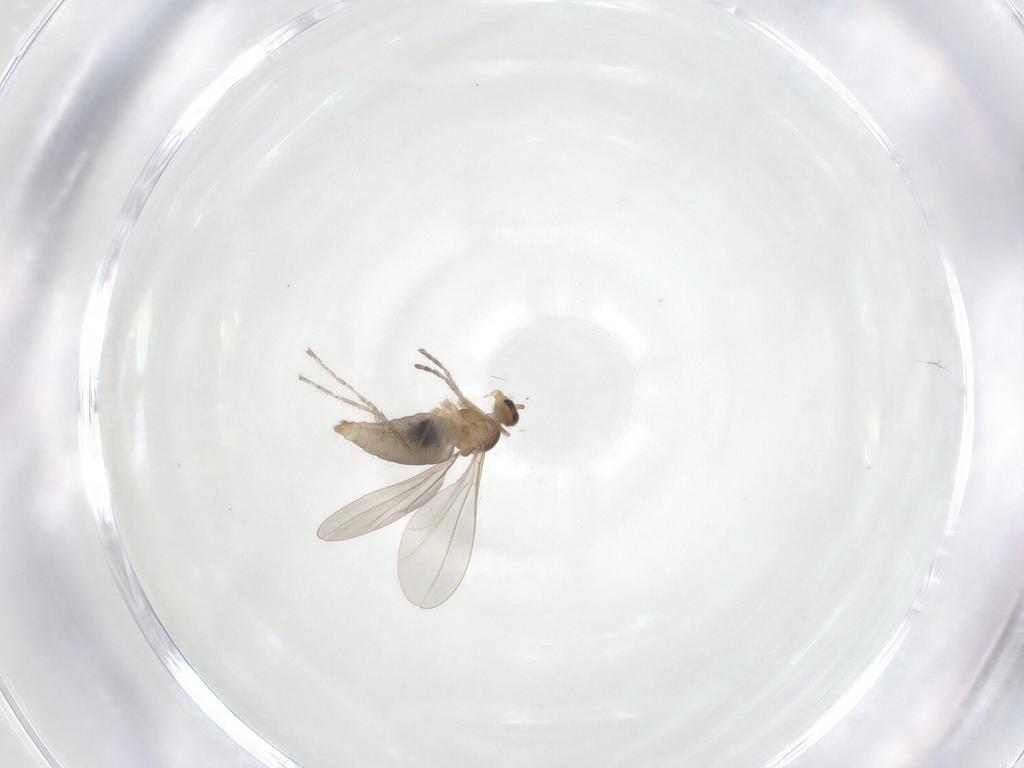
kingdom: Animalia
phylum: Arthropoda
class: Insecta
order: Diptera
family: Cecidomyiidae
